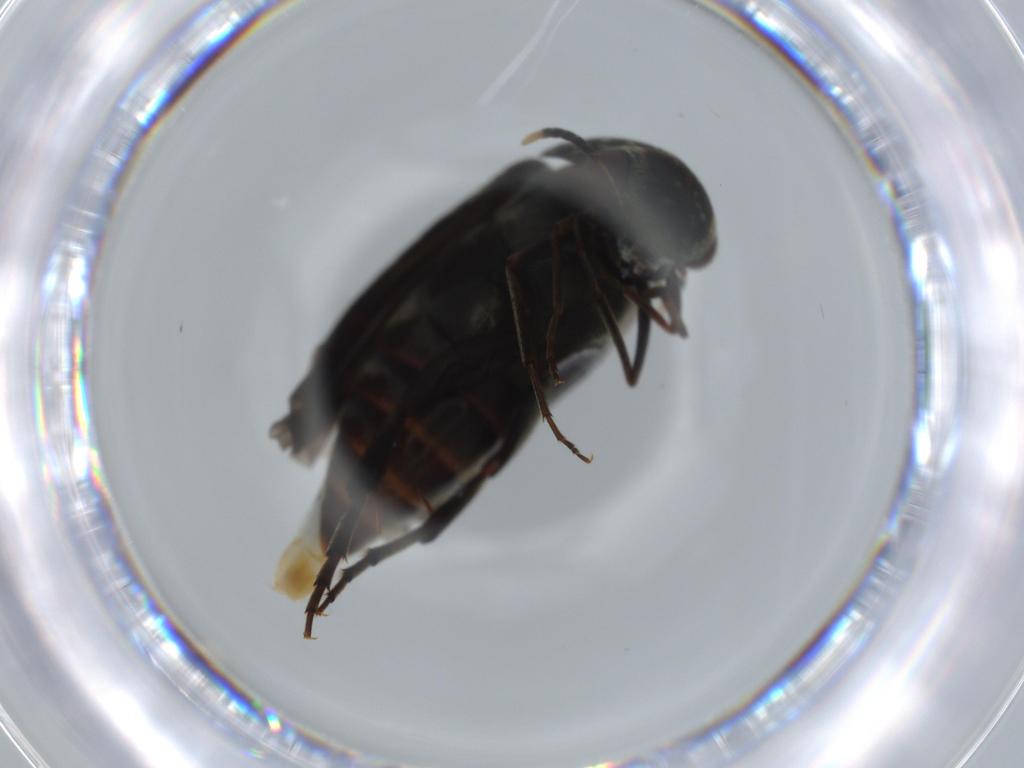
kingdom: Animalia
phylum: Arthropoda
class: Insecta
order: Coleoptera
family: Mordellidae
